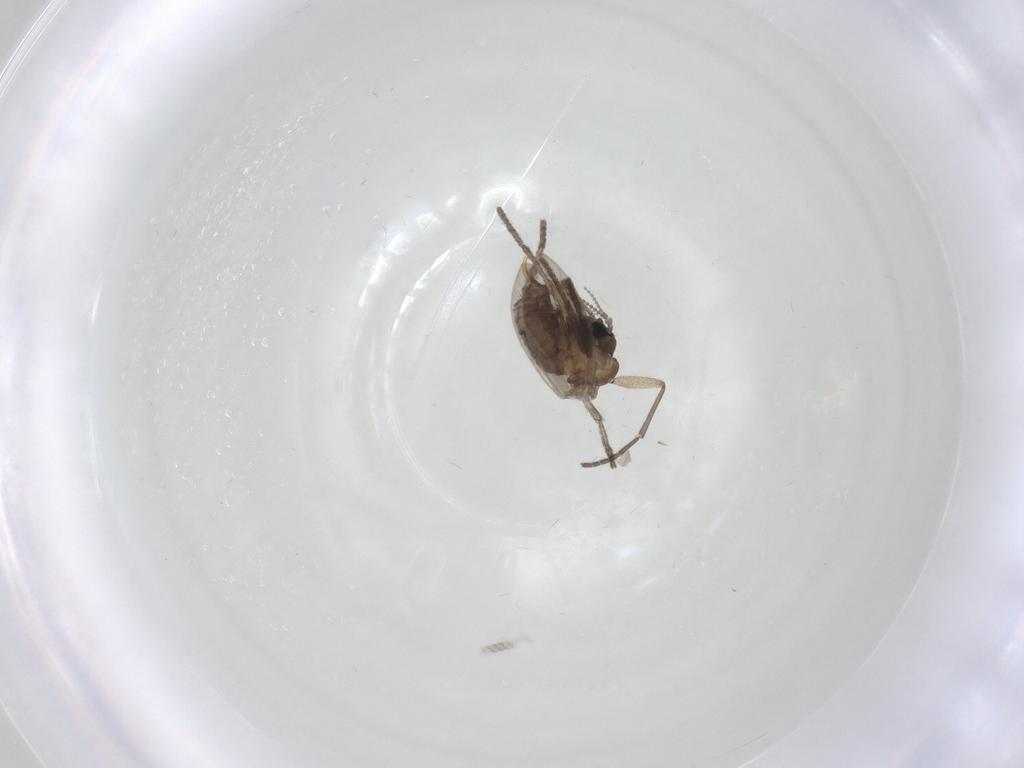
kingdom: Animalia
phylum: Arthropoda
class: Insecta
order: Diptera
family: Psychodidae
